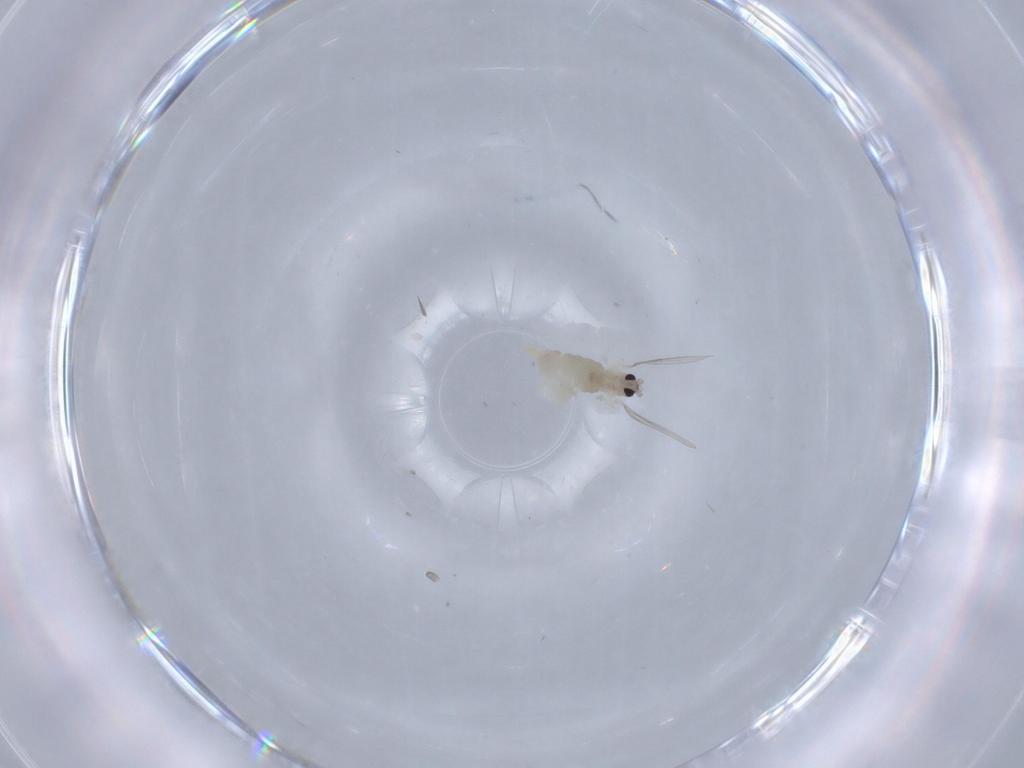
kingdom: Animalia
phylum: Arthropoda
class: Insecta
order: Diptera
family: Cecidomyiidae
